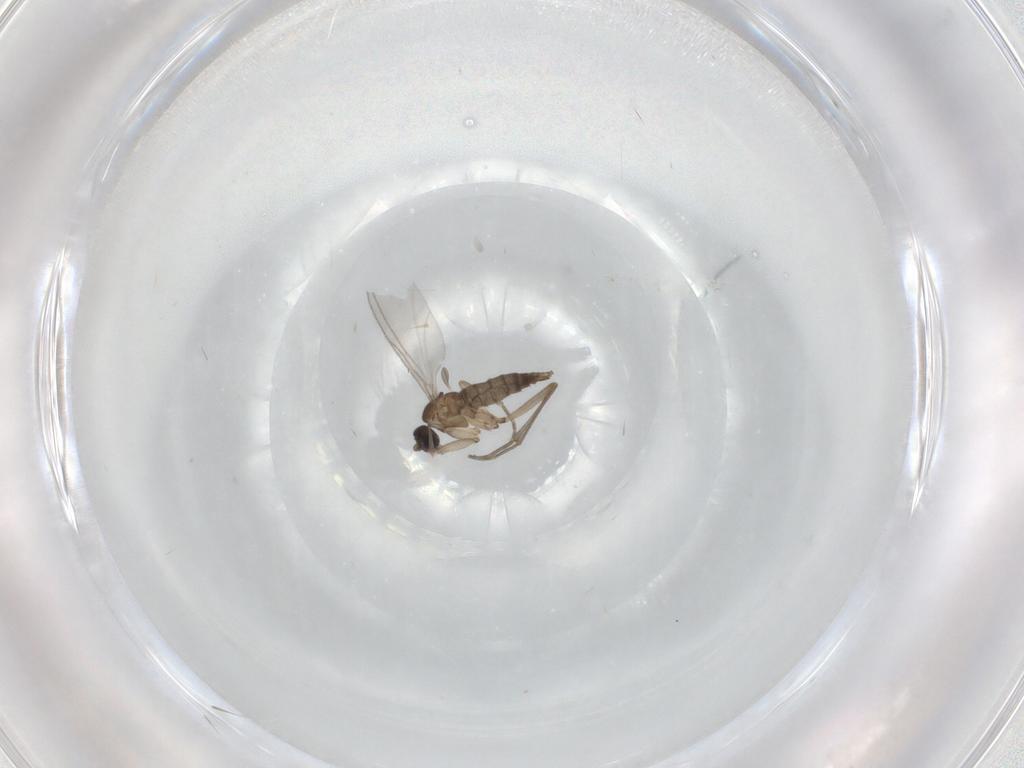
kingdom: Animalia
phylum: Arthropoda
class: Insecta
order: Diptera
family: Sciaridae
